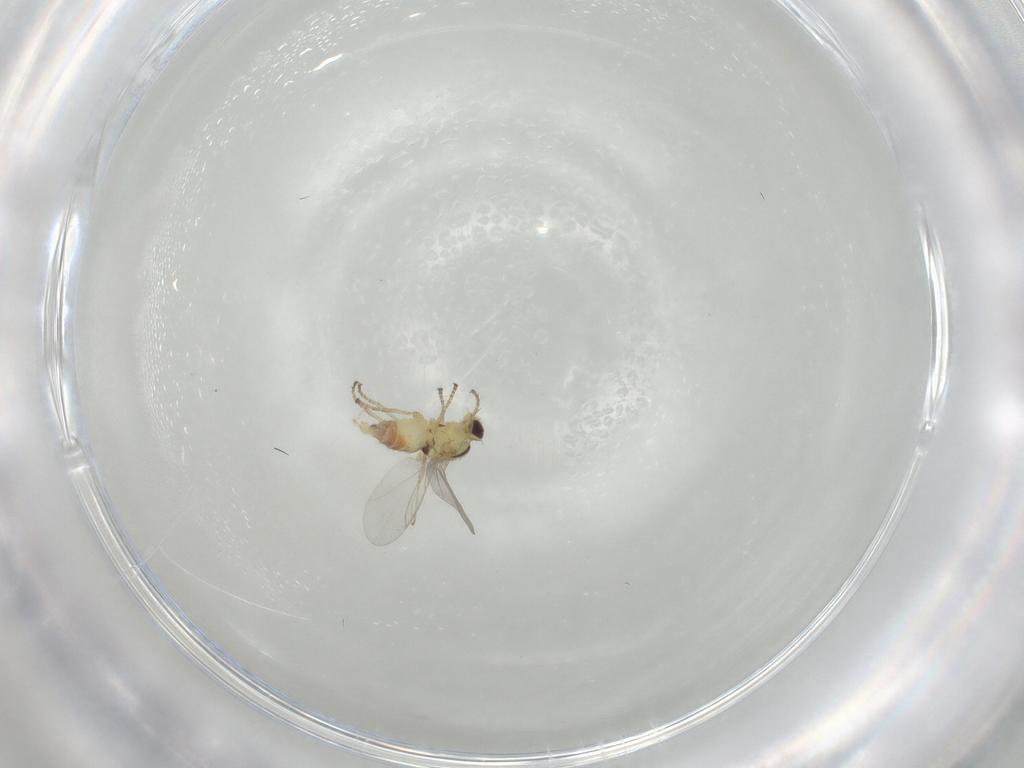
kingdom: Animalia
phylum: Arthropoda
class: Insecta
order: Diptera
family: Agromyzidae
